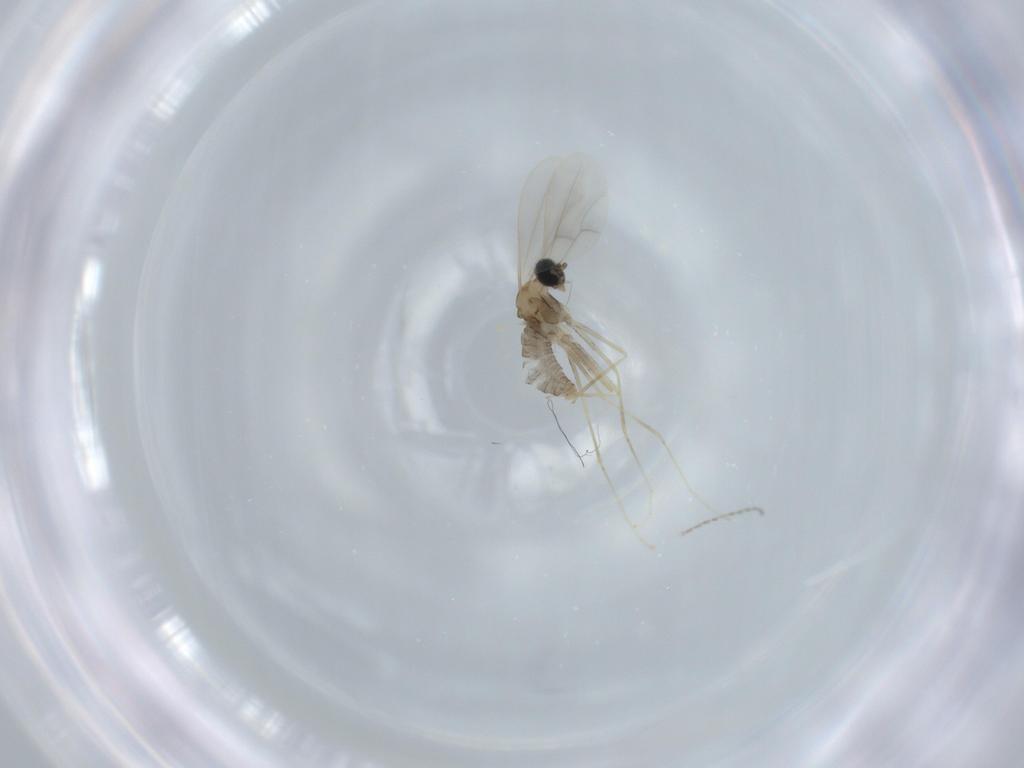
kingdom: Animalia
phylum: Arthropoda
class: Insecta
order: Diptera
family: Cecidomyiidae
